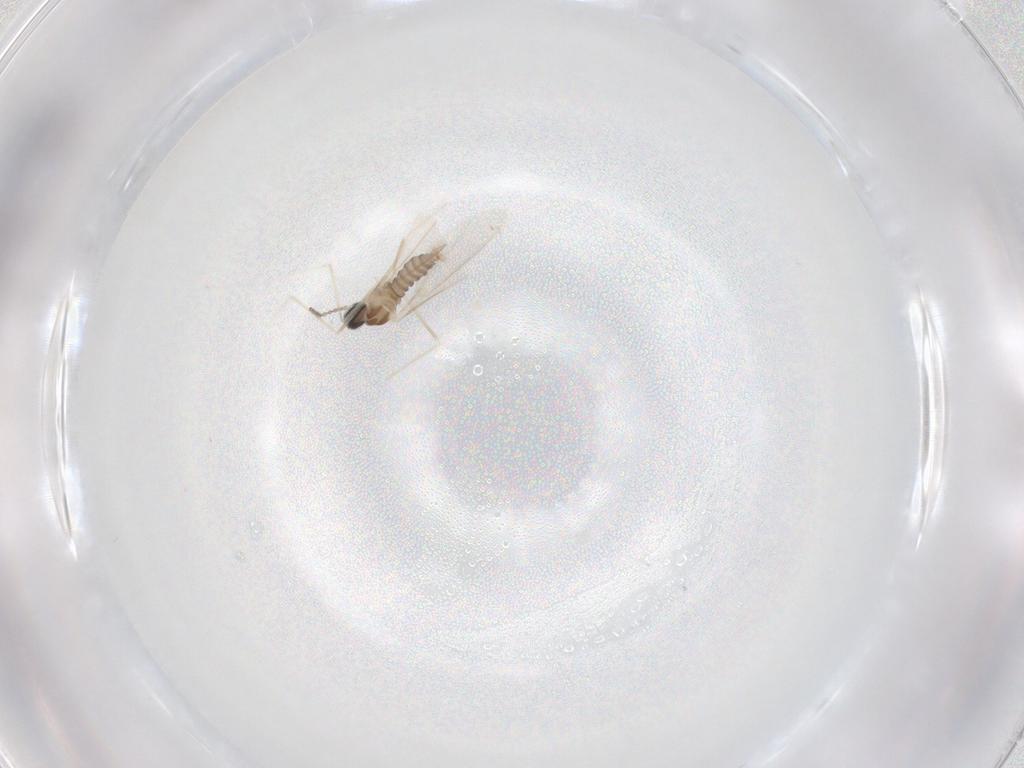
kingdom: Animalia
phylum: Arthropoda
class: Insecta
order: Diptera
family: Cecidomyiidae
